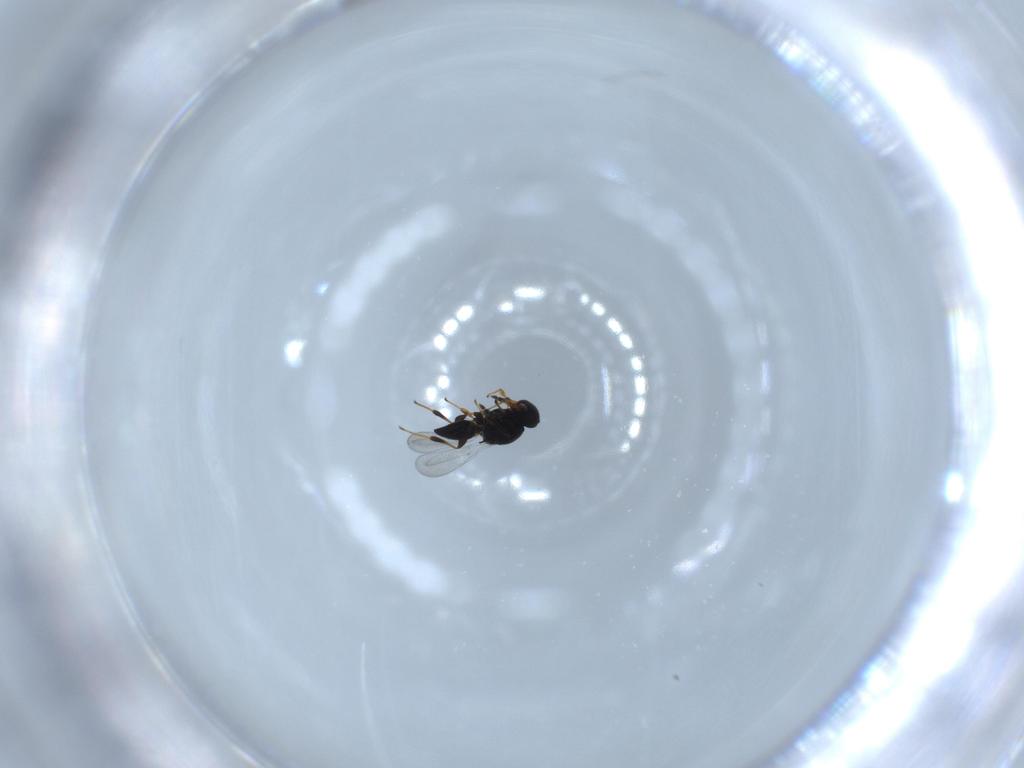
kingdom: Animalia
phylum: Arthropoda
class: Insecta
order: Hymenoptera
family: Platygastridae
